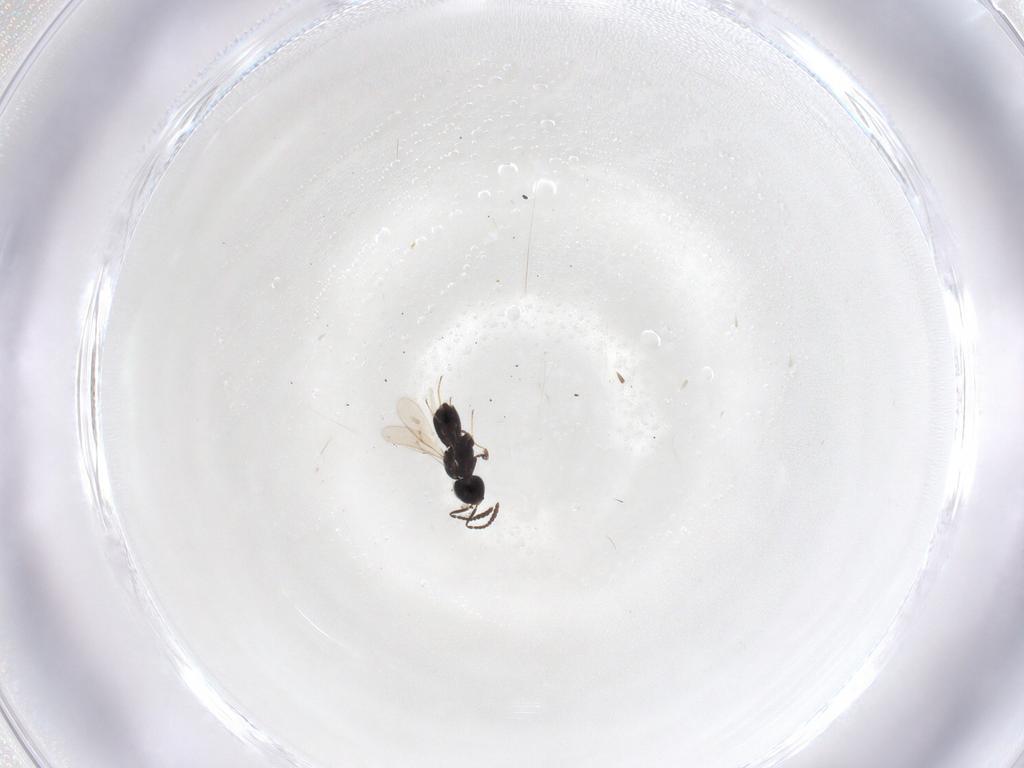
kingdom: Animalia
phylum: Arthropoda
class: Insecta
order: Hymenoptera
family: Scelionidae
